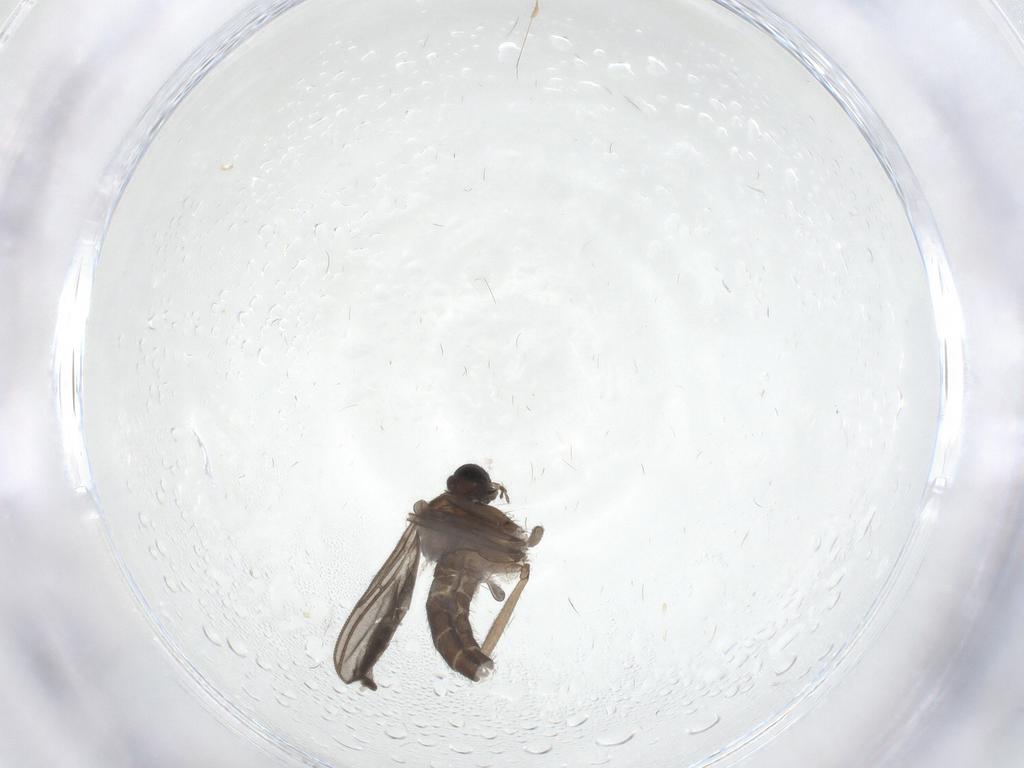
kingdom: Animalia
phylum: Arthropoda
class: Insecta
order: Diptera
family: Sciaridae
